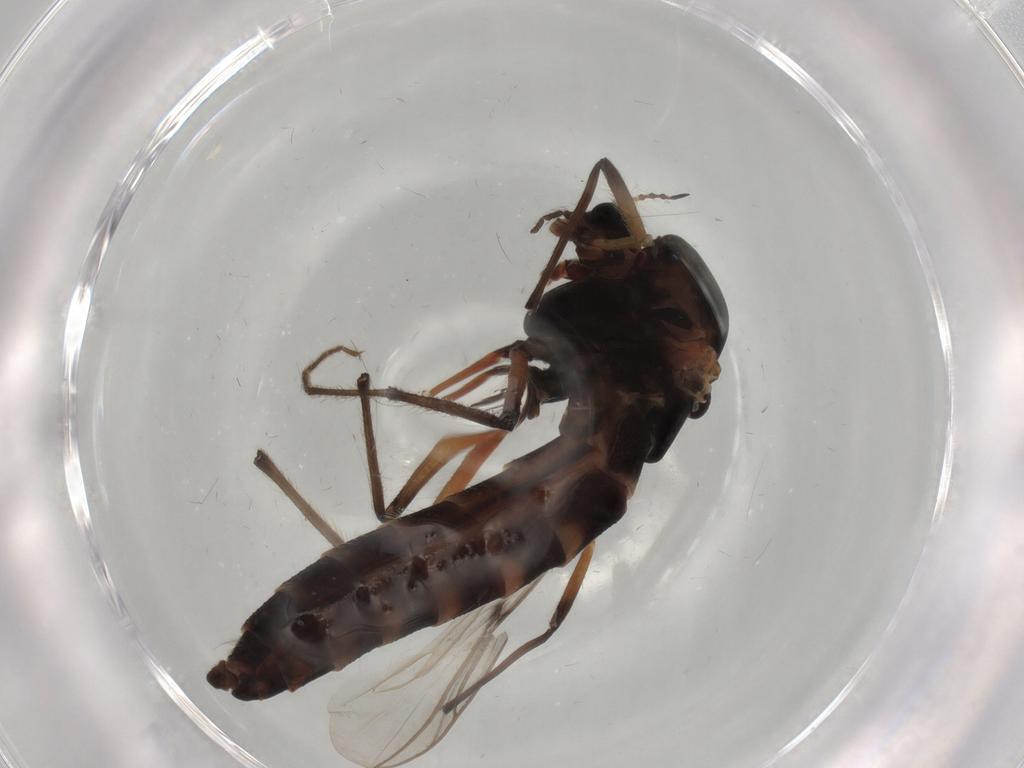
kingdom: Animalia
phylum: Arthropoda
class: Insecta
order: Diptera
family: Chironomidae
